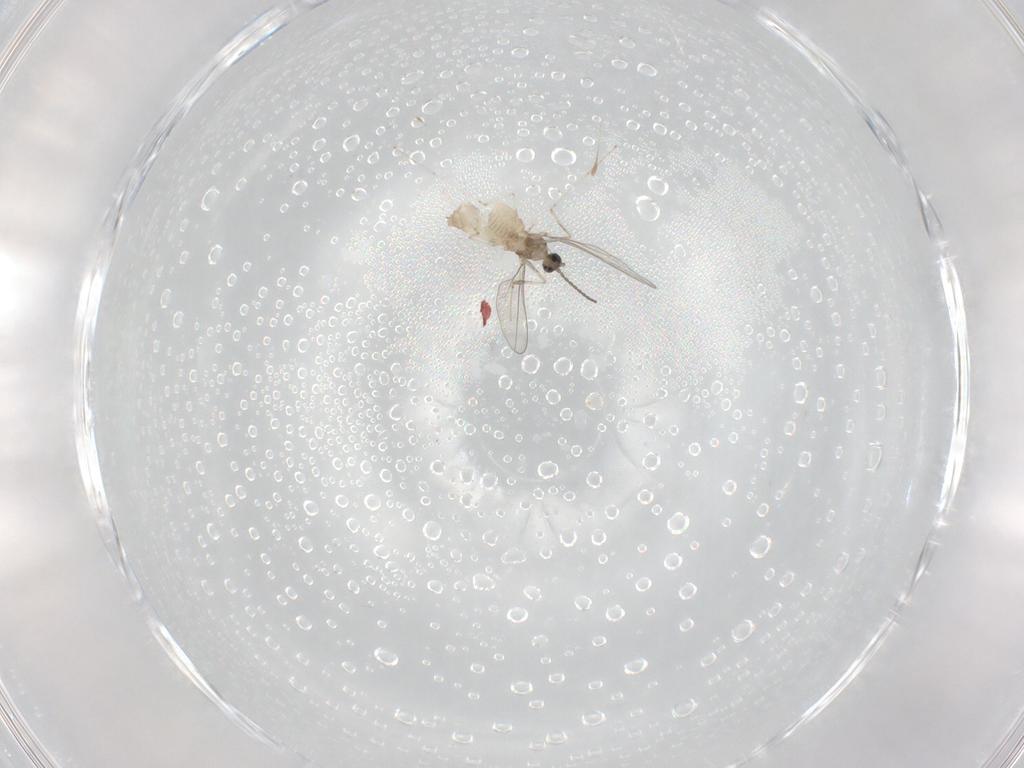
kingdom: Animalia
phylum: Arthropoda
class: Insecta
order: Diptera
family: Cecidomyiidae
